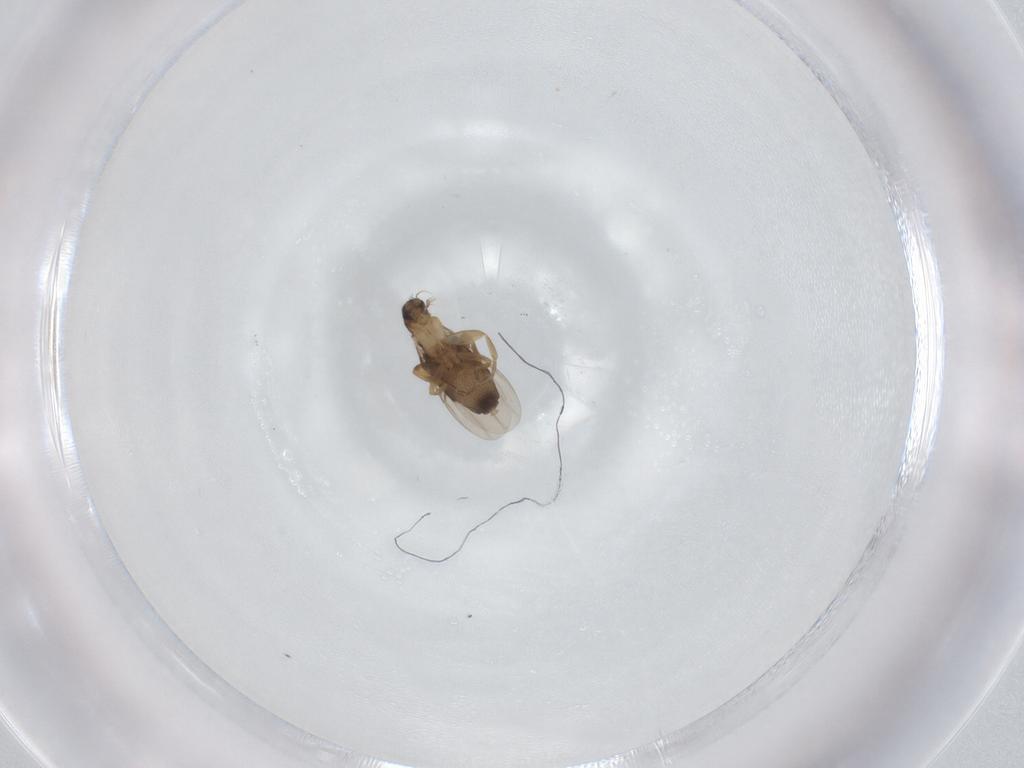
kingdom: Animalia
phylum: Arthropoda
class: Insecta
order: Diptera
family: Phoridae
